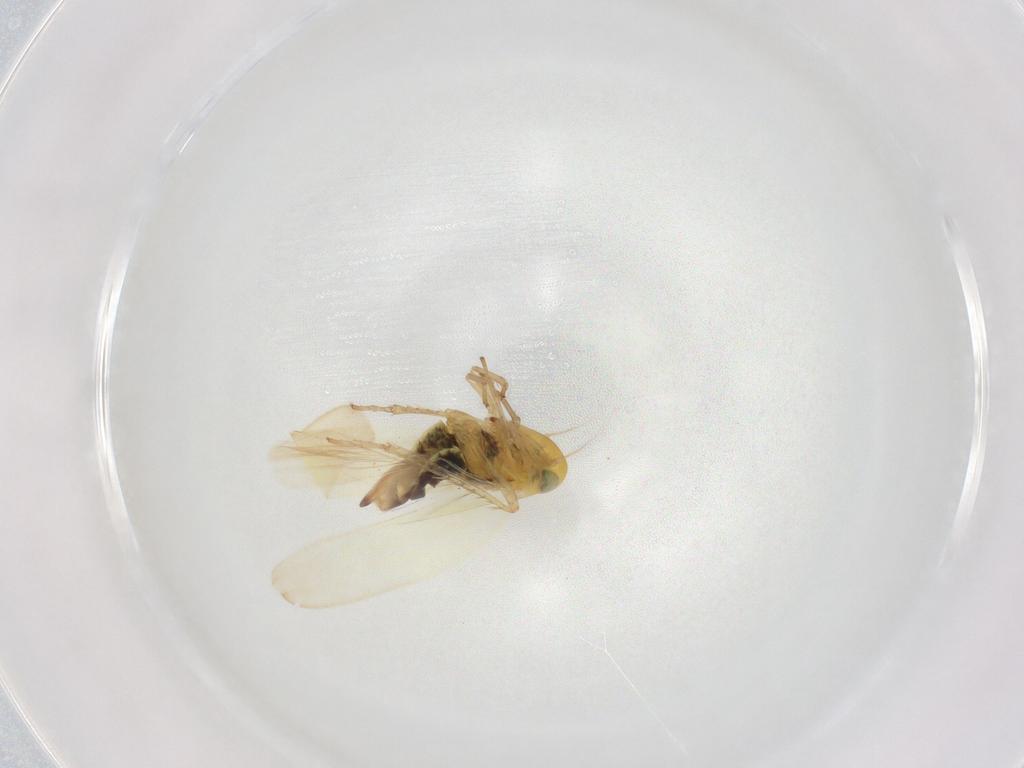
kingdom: Animalia
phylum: Arthropoda
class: Insecta
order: Hemiptera
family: Cicadellidae
